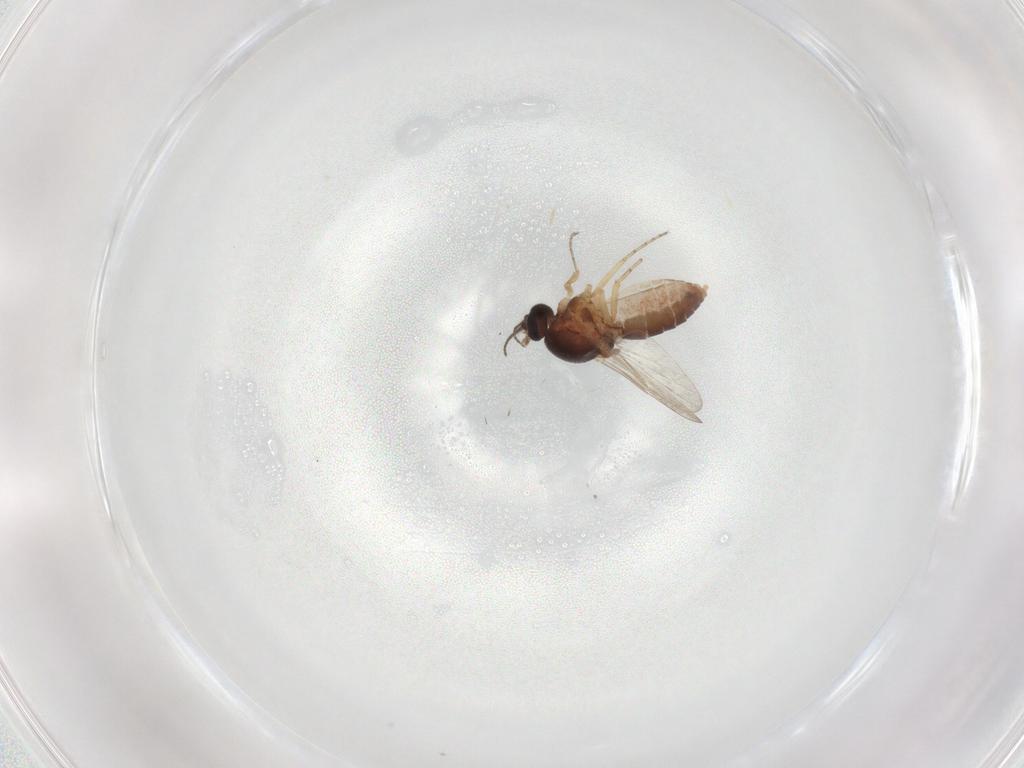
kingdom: Animalia
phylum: Arthropoda
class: Insecta
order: Diptera
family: Ceratopogonidae
